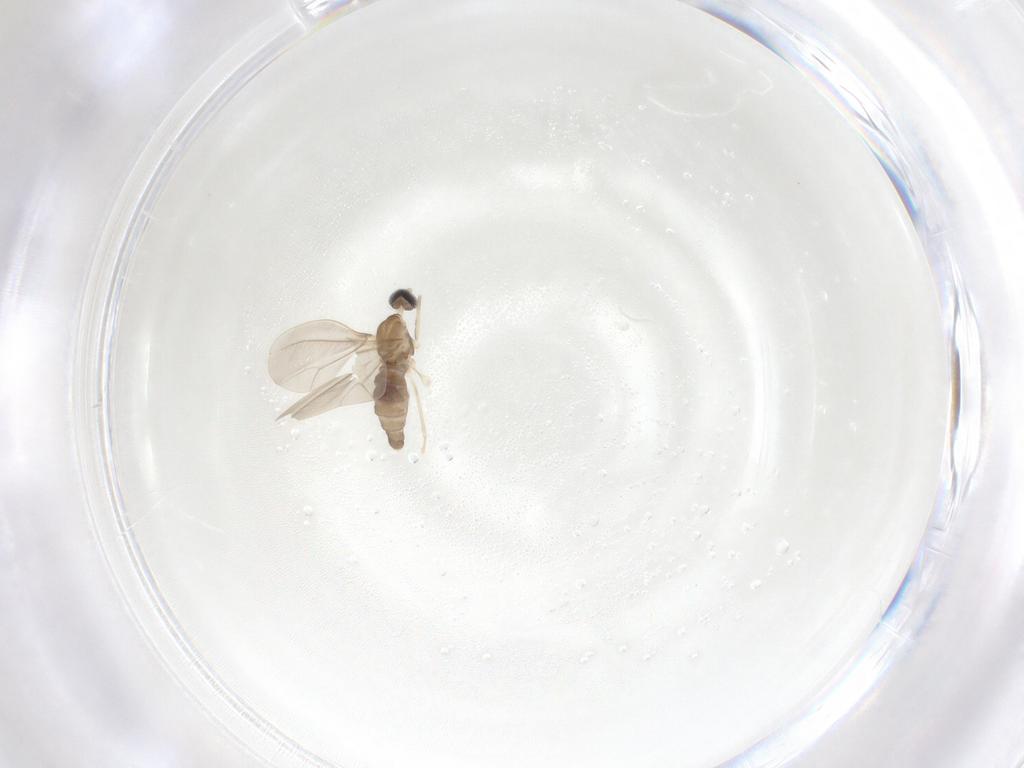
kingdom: Animalia
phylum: Arthropoda
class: Insecta
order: Diptera
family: Cecidomyiidae
